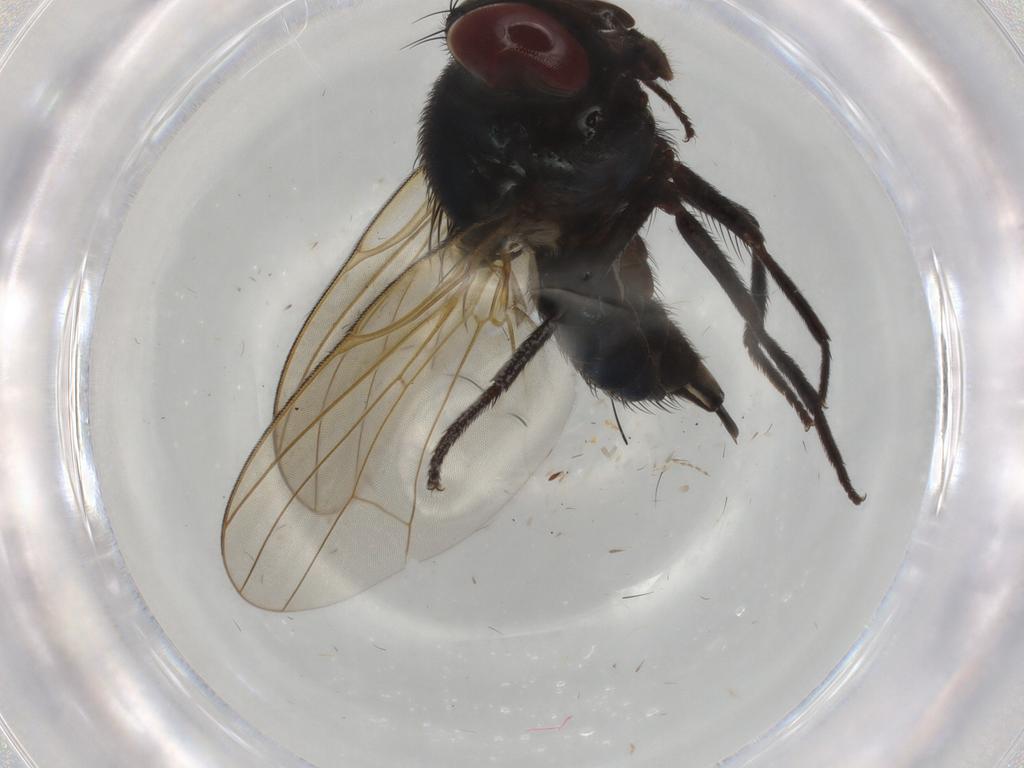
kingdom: Animalia
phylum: Arthropoda
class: Insecta
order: Diptera
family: Lonchaeidae
